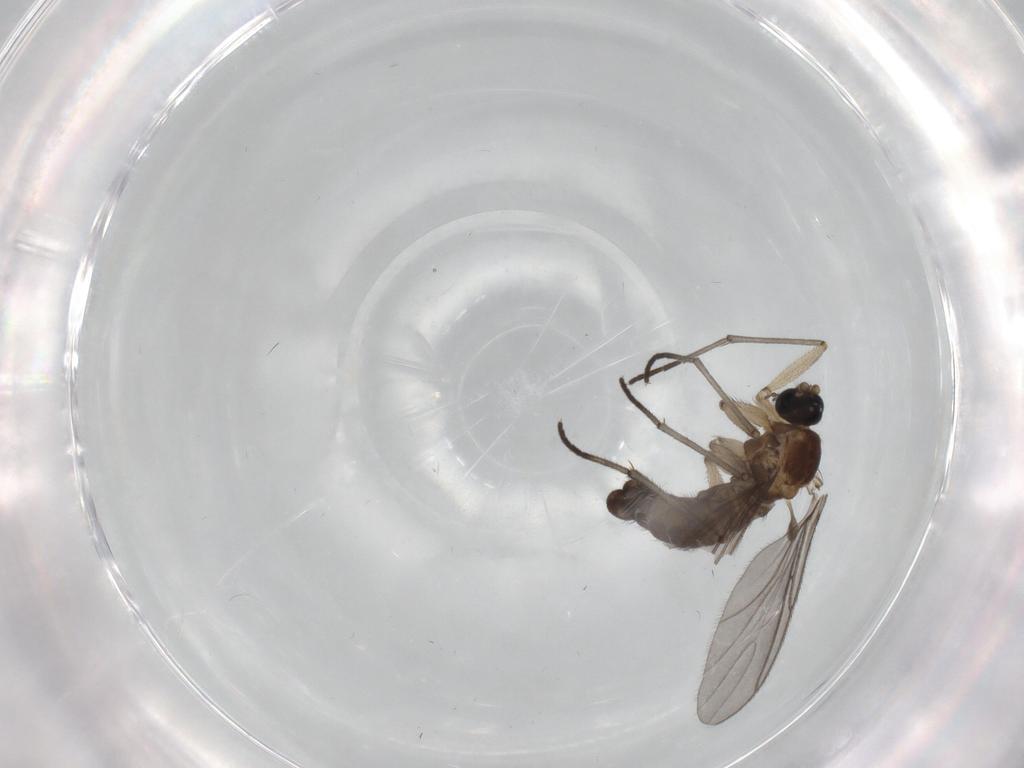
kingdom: Animalia
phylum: Arthropoda
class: Insecta
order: Diptera
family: Sciaridae
